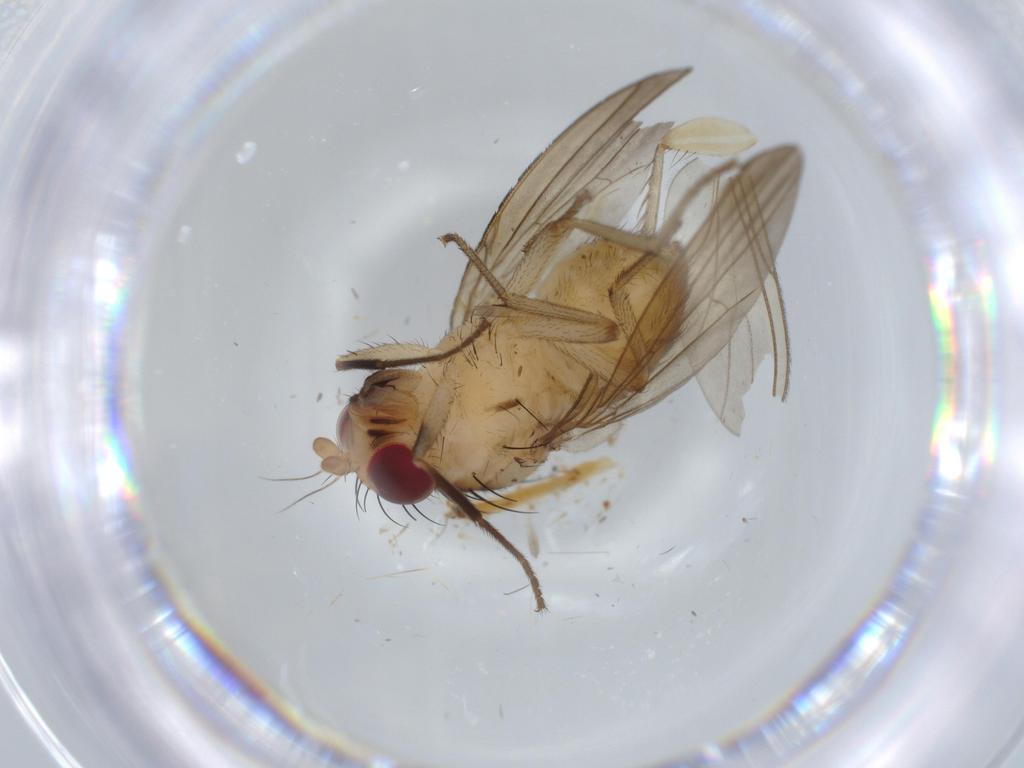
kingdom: Animalia
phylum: Arthropoda
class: Insecta
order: Diptera
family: Mycetophilidae
